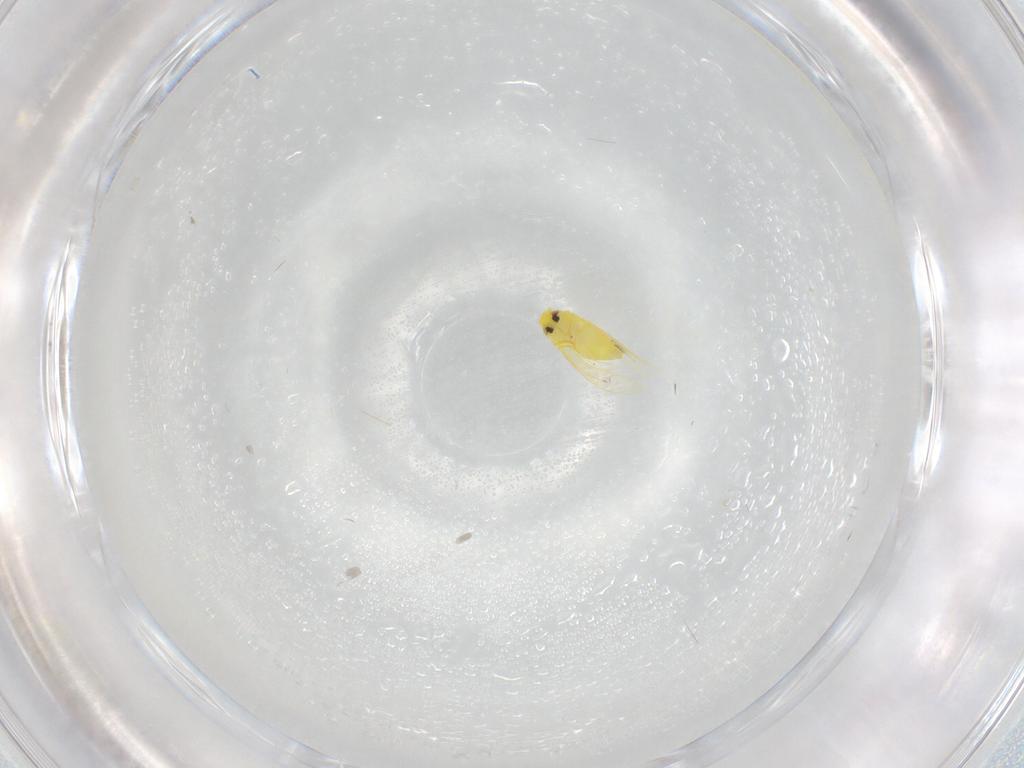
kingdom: Animalia
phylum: Arthropoda
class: Insecta
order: Hemiptera
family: Aleyrodidae
